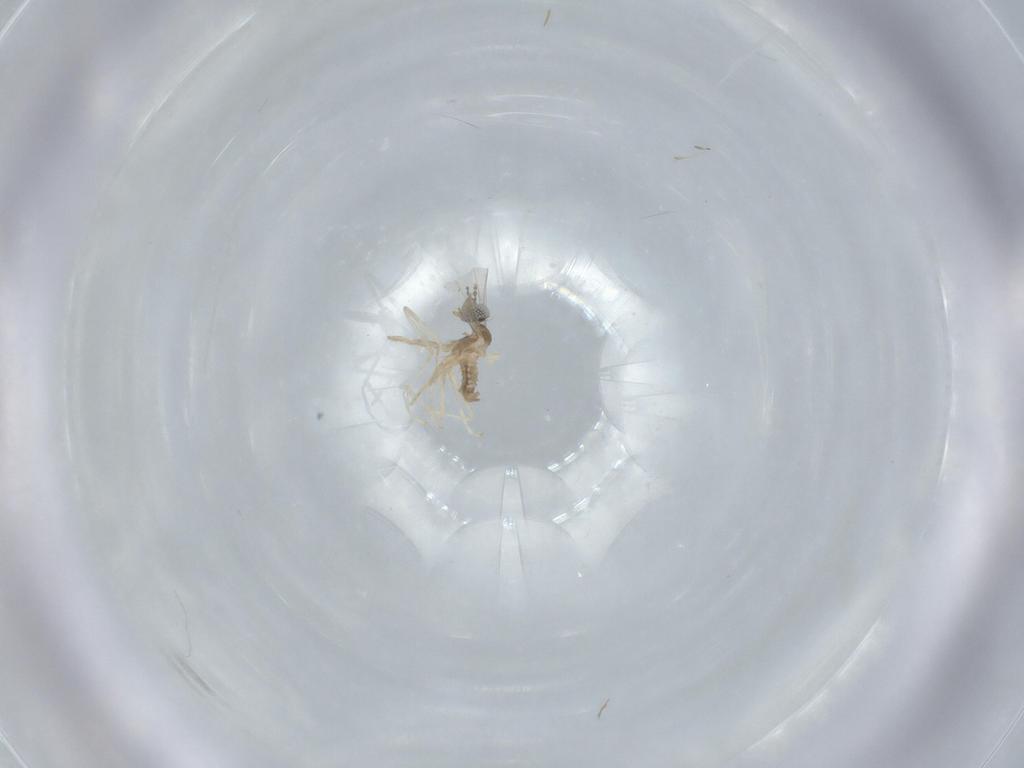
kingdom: Animalia
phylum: Arthropoda
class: Insecta
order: Diptera
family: Cecidomyiidae
